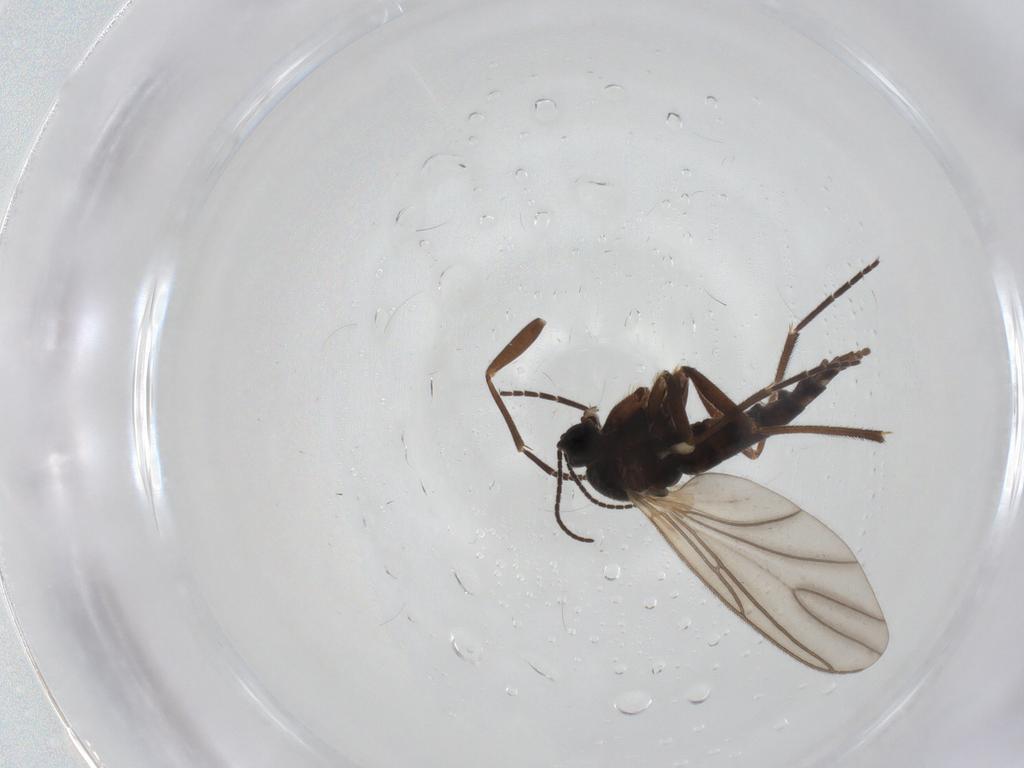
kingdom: Animalia
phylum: Arthropoda
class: Insecta
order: Diptera
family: Sciaridae
